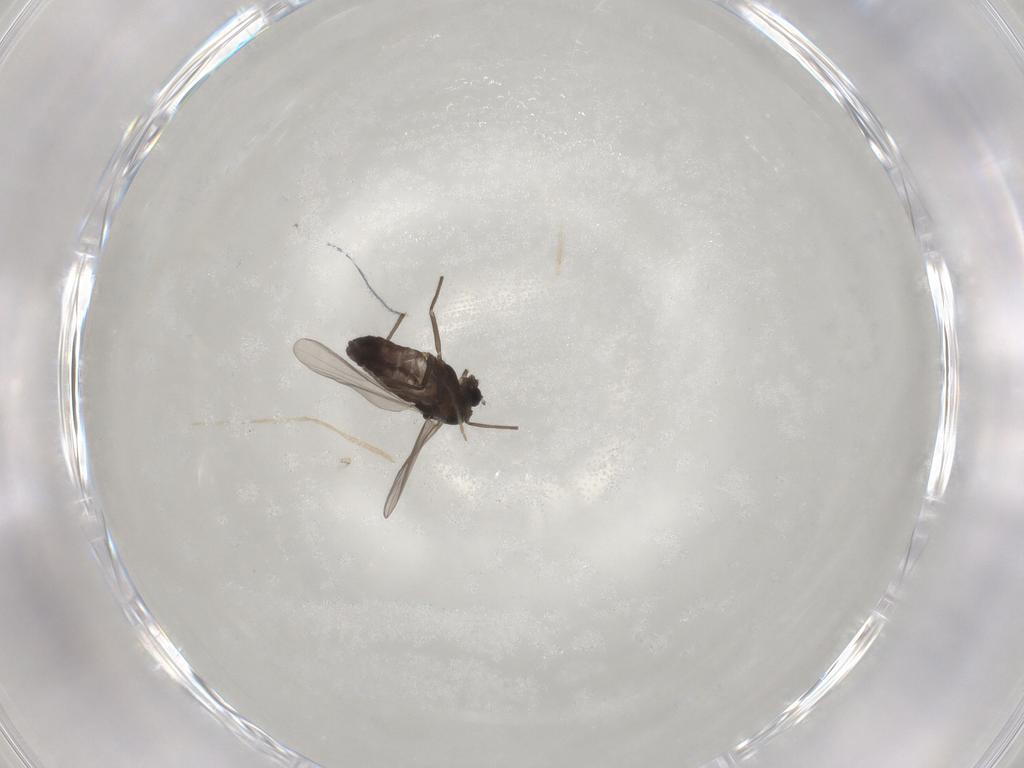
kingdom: Animalia
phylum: Arthropoda
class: Insecta
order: Diptera
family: Chironomidae
